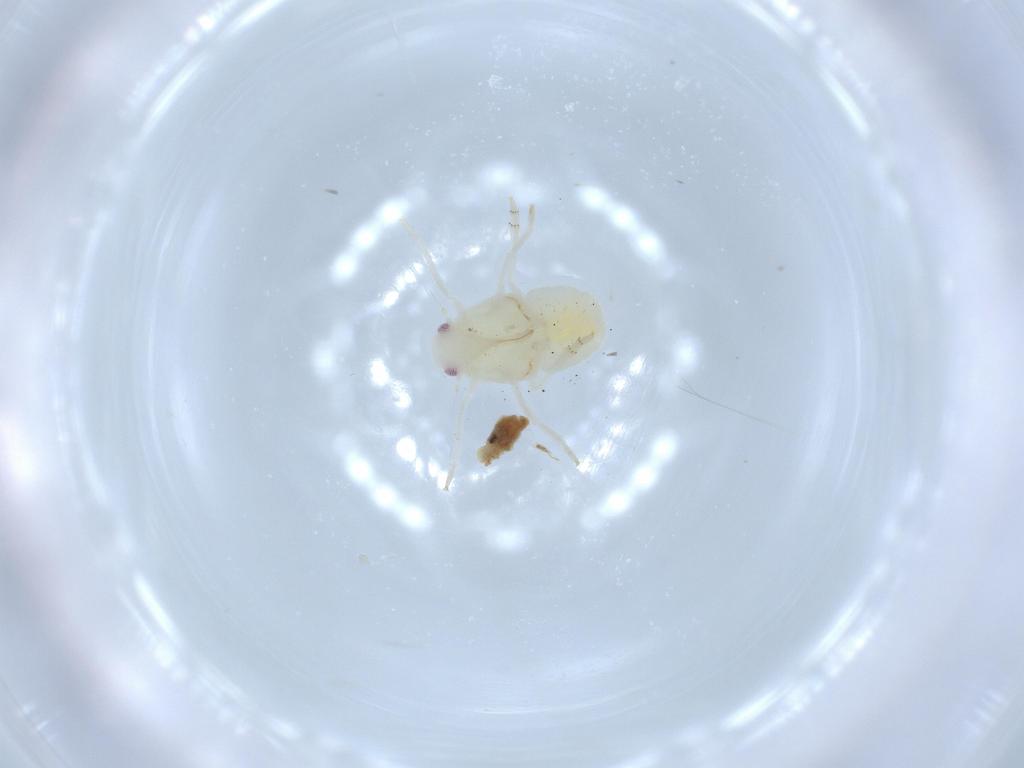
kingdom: Animalia
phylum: Arthropoda
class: Insecta
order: Hemiptera
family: Flatidae
